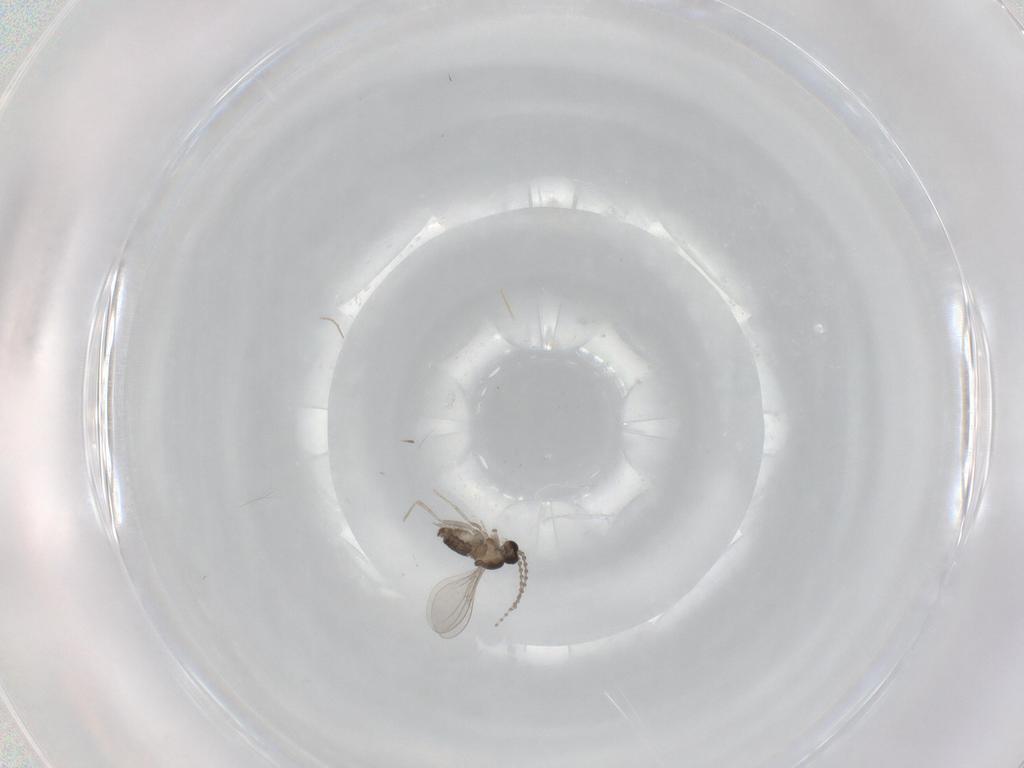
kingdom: Animalia
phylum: Arthropoda
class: Insecta
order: Diptera
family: Cecidomyiidae
